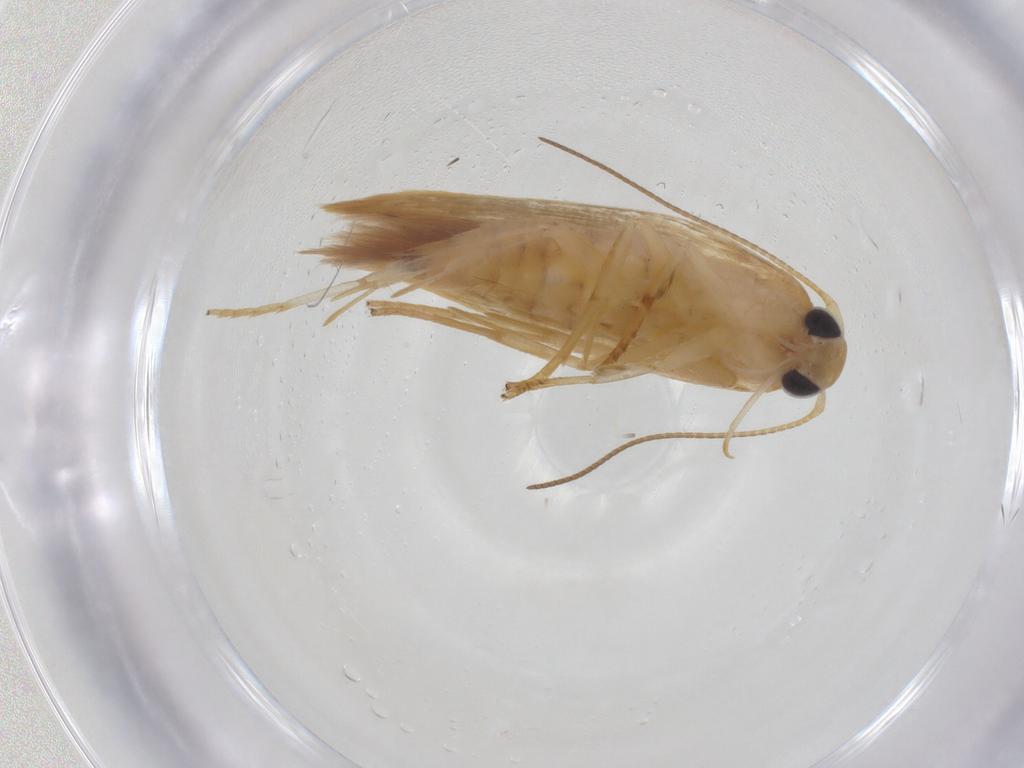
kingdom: Animalia
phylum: Arthropoda
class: Insecta
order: Lepidoptera
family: Stathmopodidae
